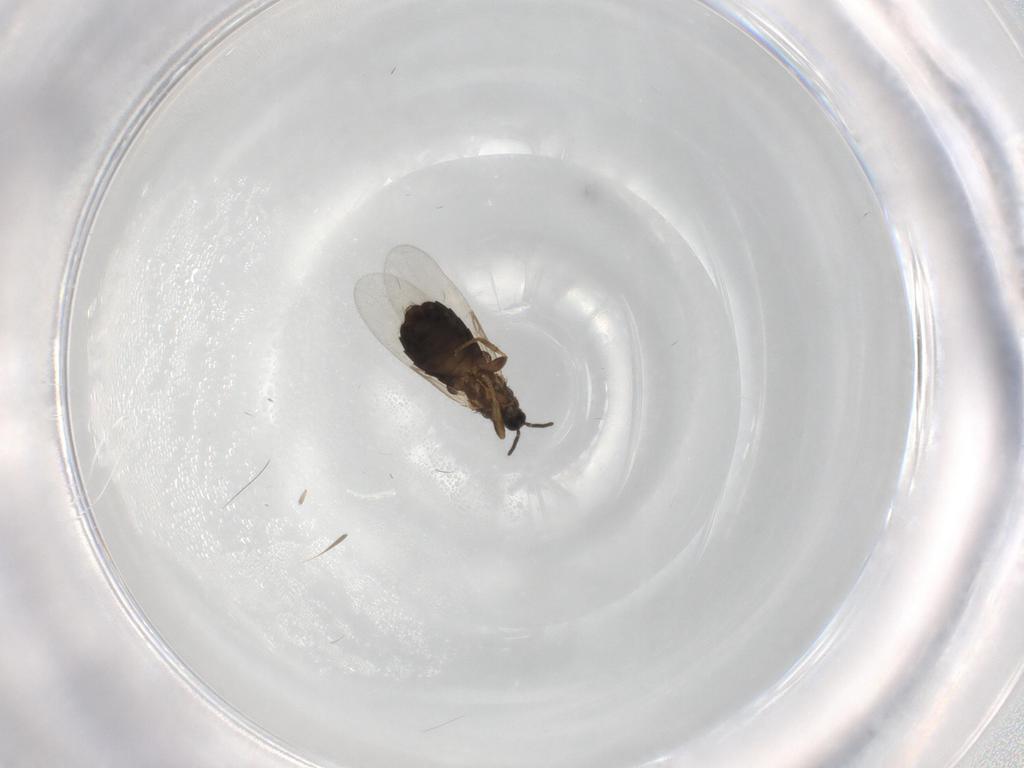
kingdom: Animalia
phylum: Arthropoda
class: Insecta
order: Diptera
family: Scatopsidae
